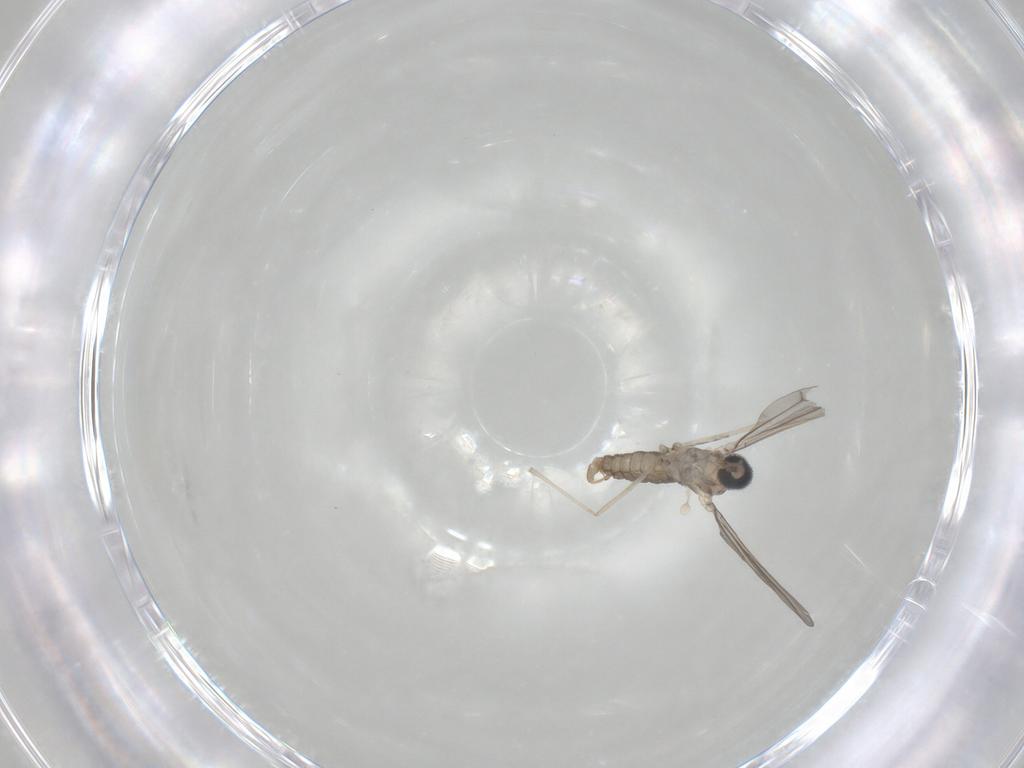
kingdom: Animalia
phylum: Arthropoda
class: Insecta
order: Diptera
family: Cecidomyiidae
